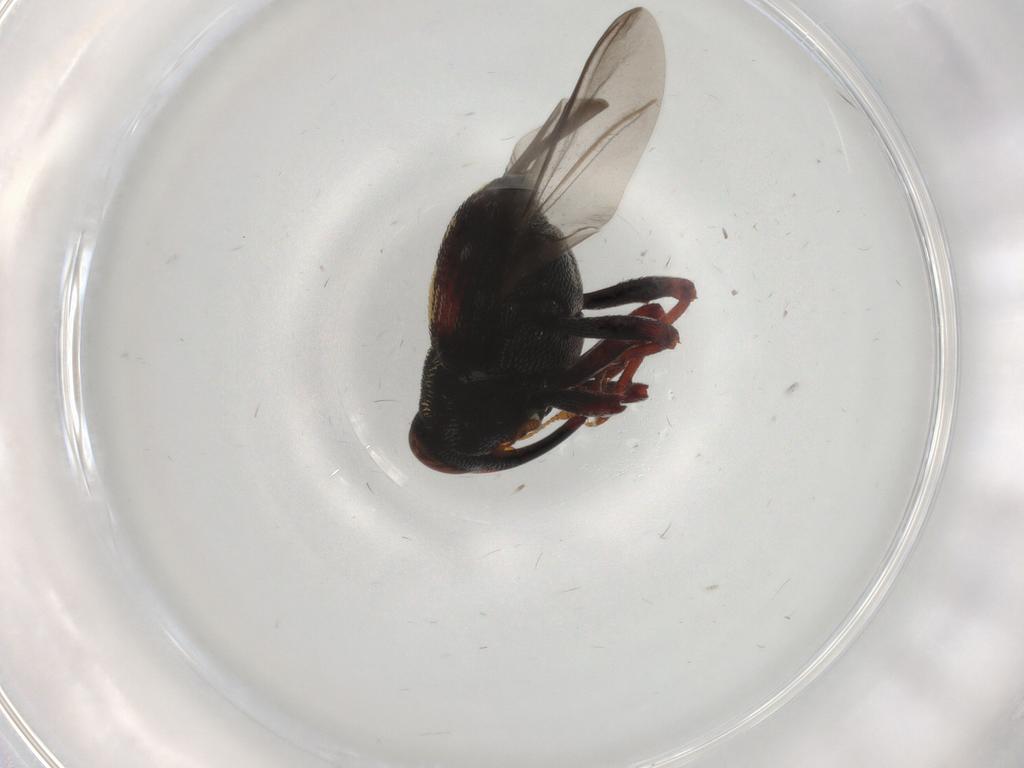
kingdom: Animalia
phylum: Arthropoda
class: Insecta
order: Coleoptera
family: Curculionidae
